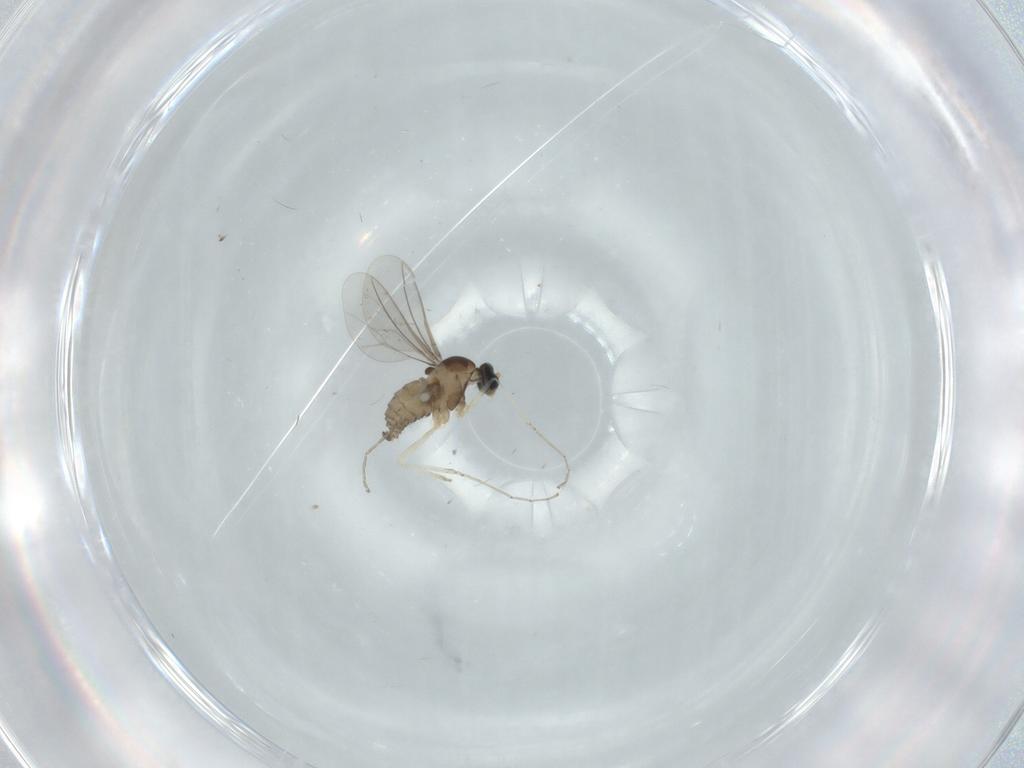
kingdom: Animalia
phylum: Arthropoda
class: Insecta
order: Diptera
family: Cecidomyiidae
